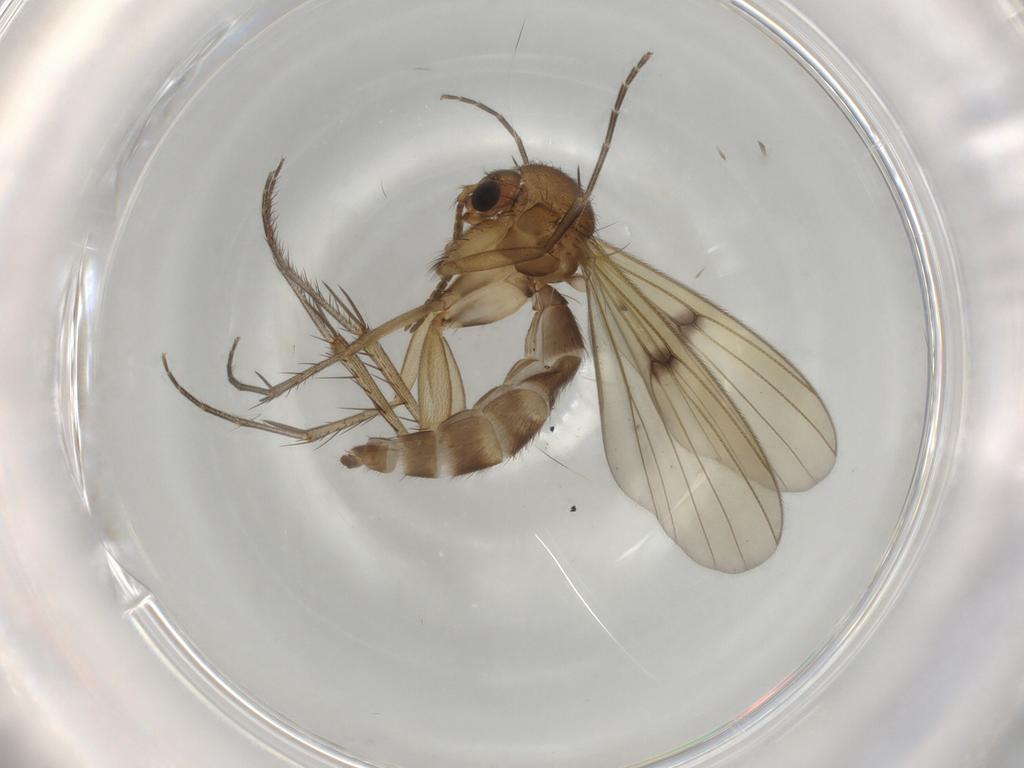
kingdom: Animalia
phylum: Arthropoda
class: Insecta
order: Diptera
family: Mycetophilidae
